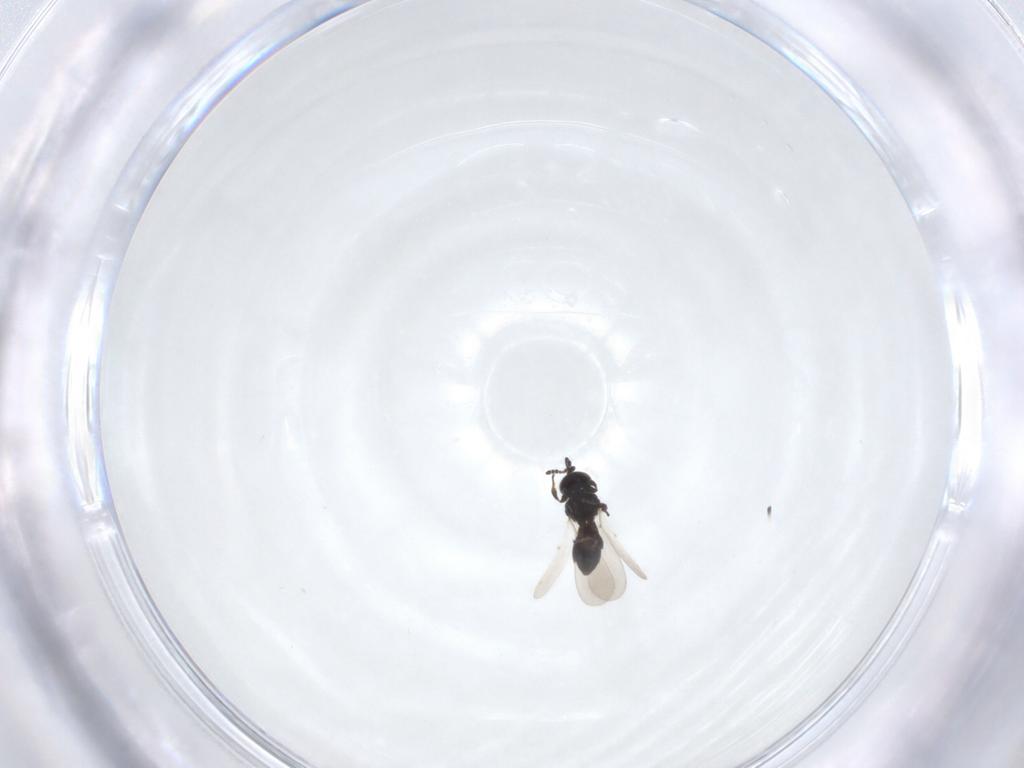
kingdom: Animalia
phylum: Arthropoda
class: Insecta
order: Hymenoptera
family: Platygastridae
